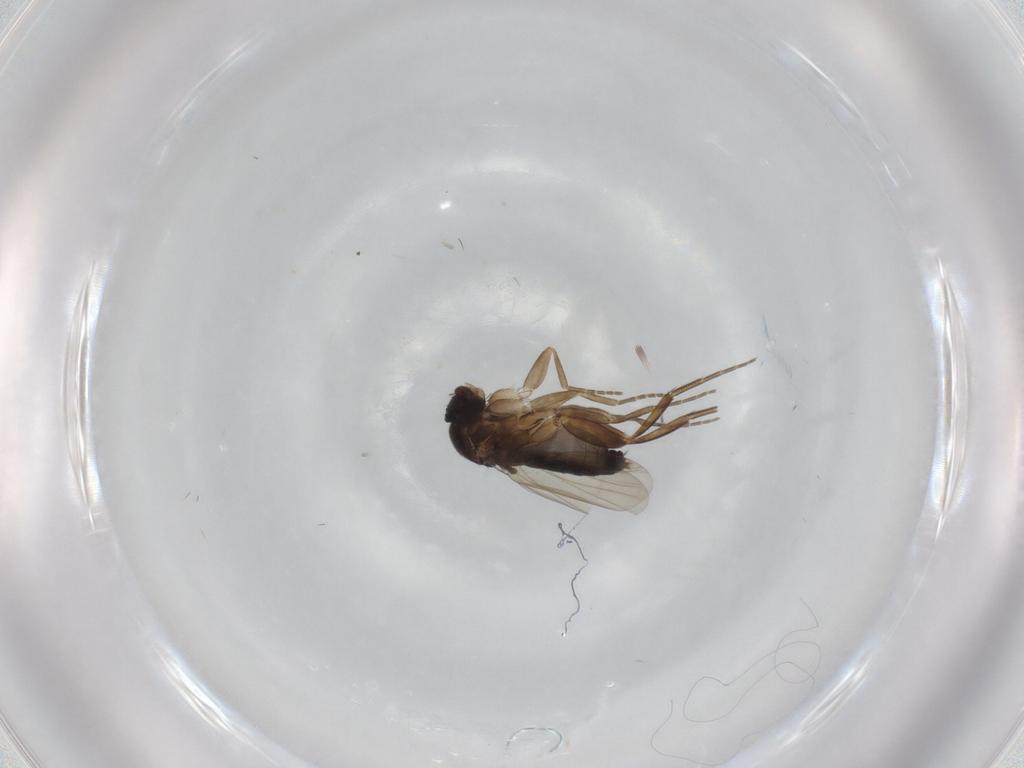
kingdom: Animalia
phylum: Arthropoda
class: Insecta
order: Diptera
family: Phoridae
